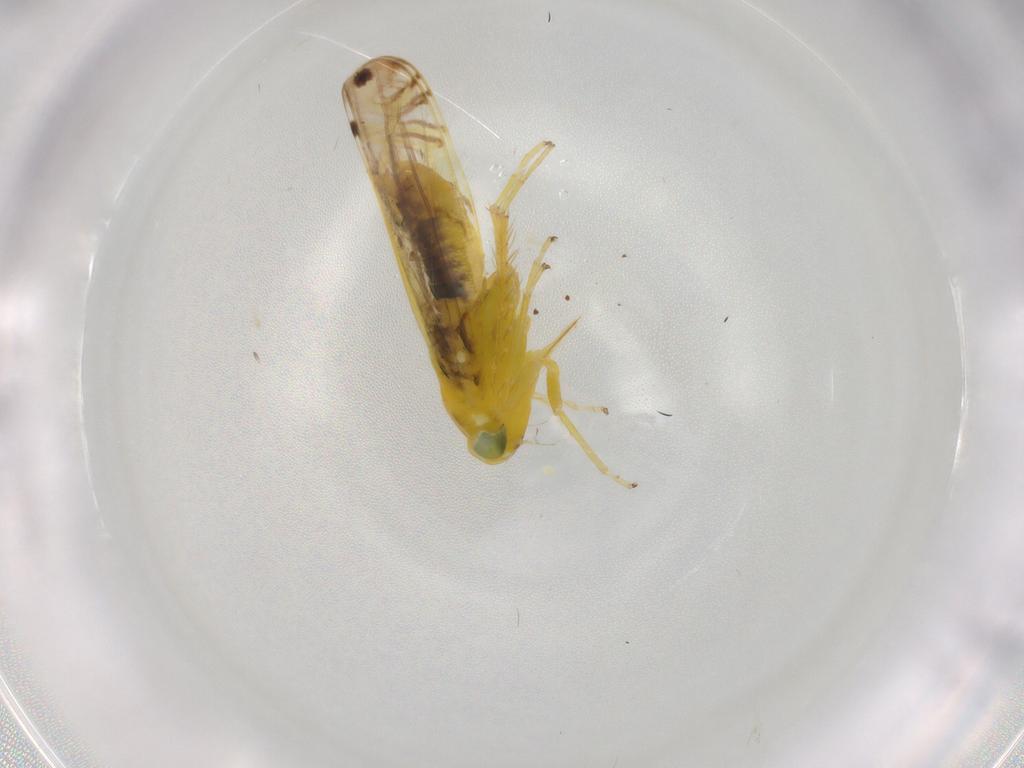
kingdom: Animalia
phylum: Arthropoda
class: Insecta
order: Hemiptera
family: Cicadellidae
